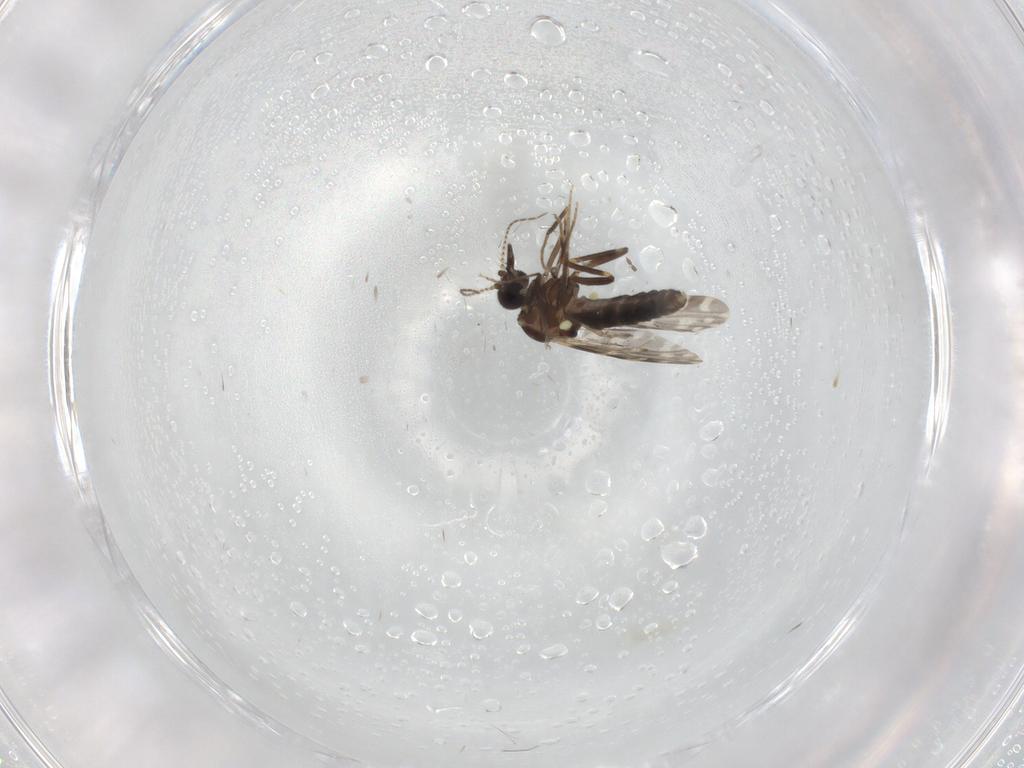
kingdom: Animalia
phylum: Arthropoda
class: Insecta
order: Diptera
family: Ceratopogonidae
